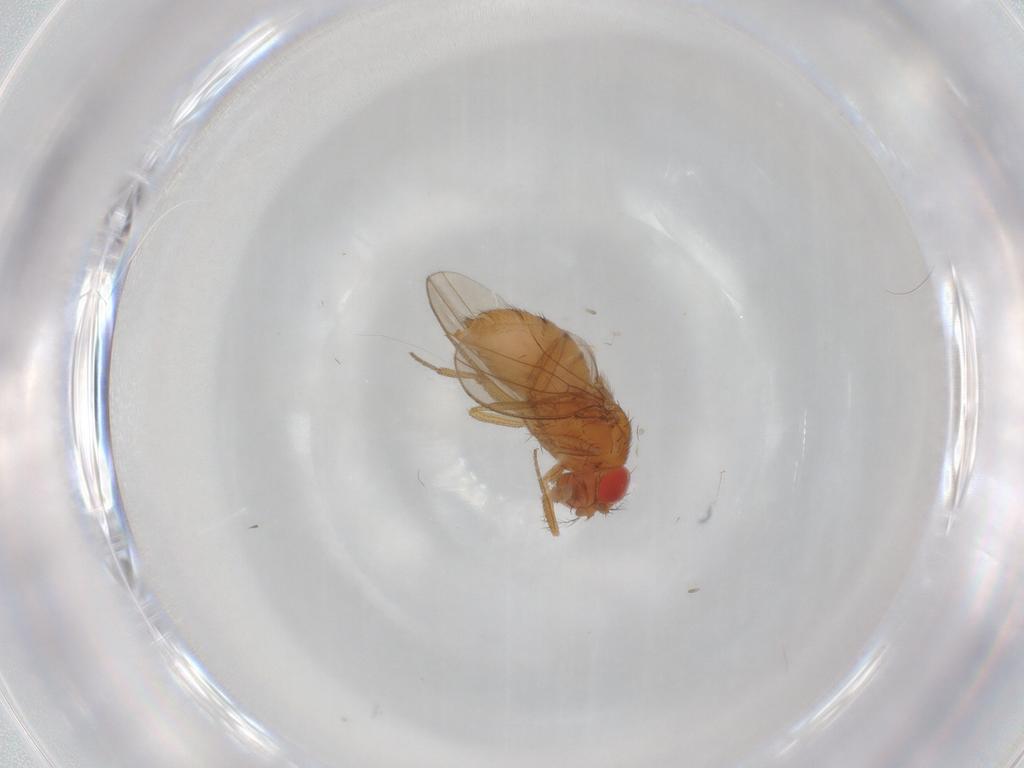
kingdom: Animalia
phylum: Arthropoda
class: Insecta
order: Diptera
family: Drosophilidae
